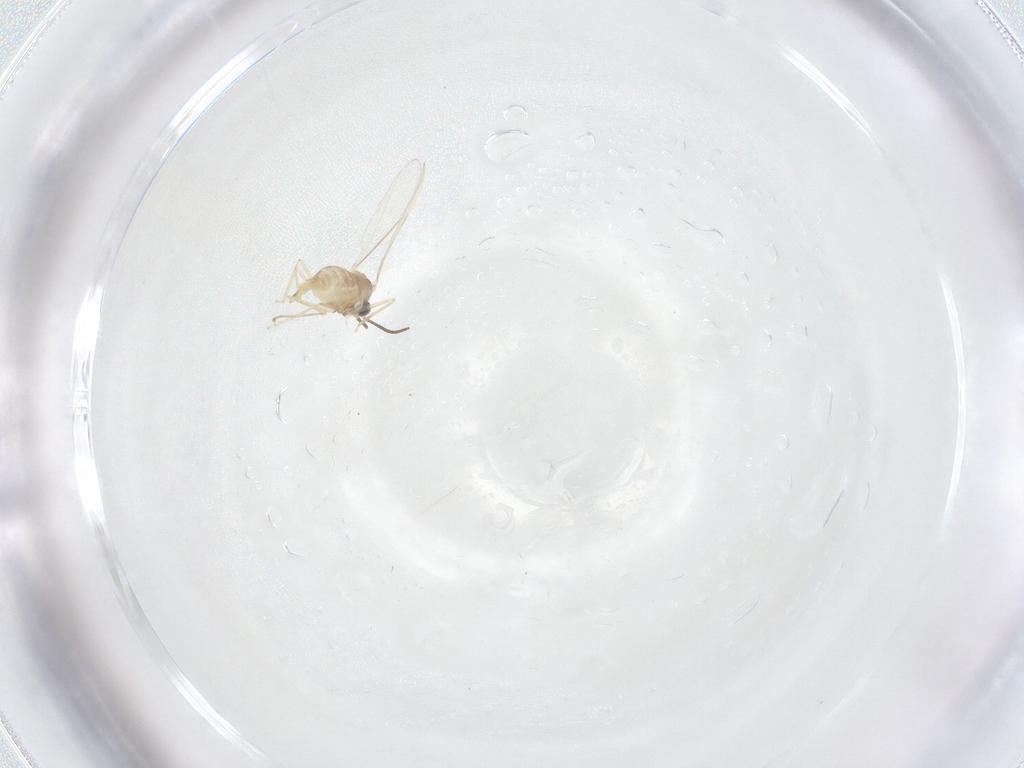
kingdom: Animalia
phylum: Arthropoda
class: Insecta
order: Diptera
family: Cecidomyiidae
